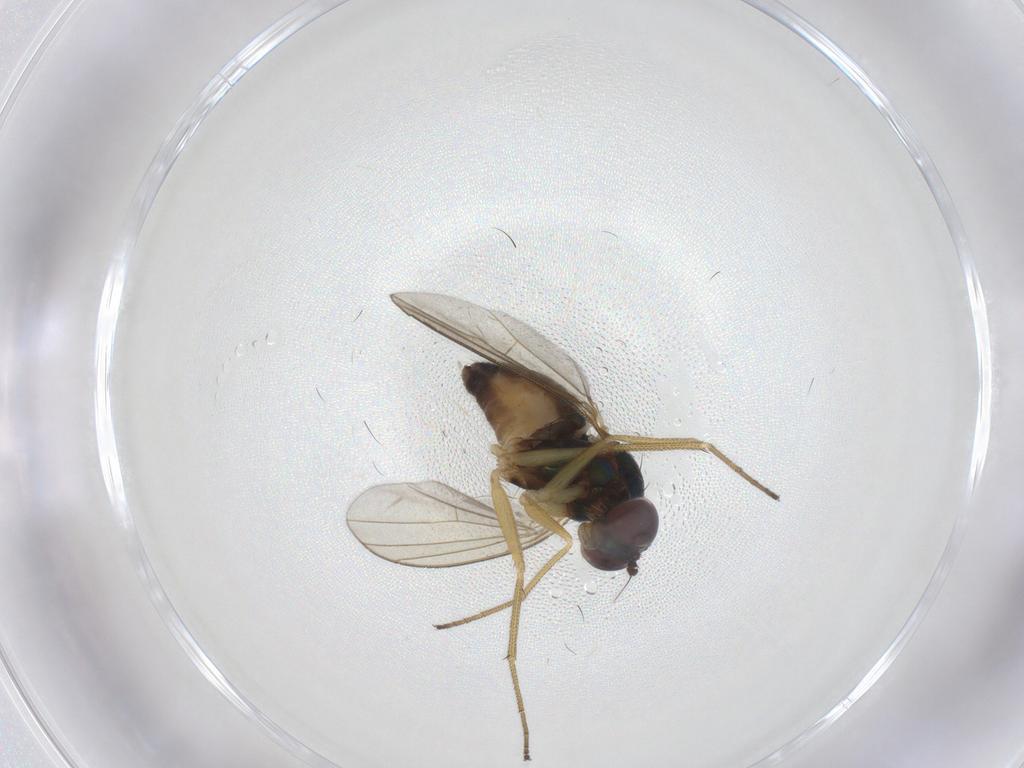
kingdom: Animalia
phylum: Arthropoda
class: Insecta
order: Diptera
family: Dolichopodidae
